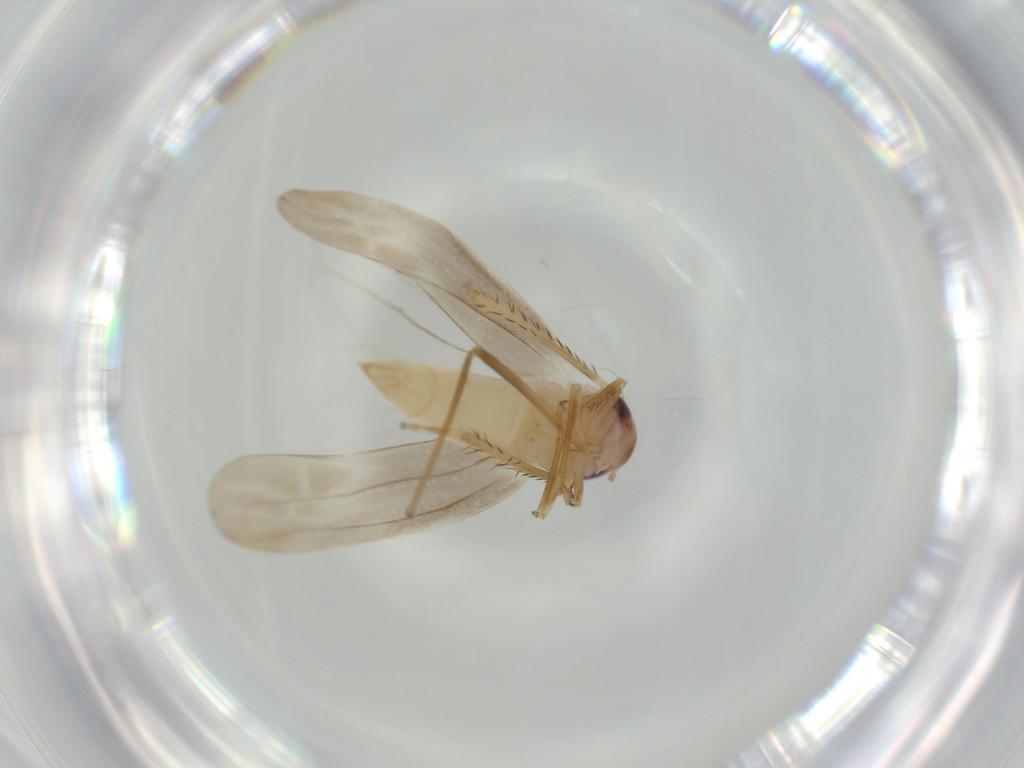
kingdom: Animalia
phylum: Arthropoda
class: Insecta
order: Hemiptera
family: Cicadellidae
